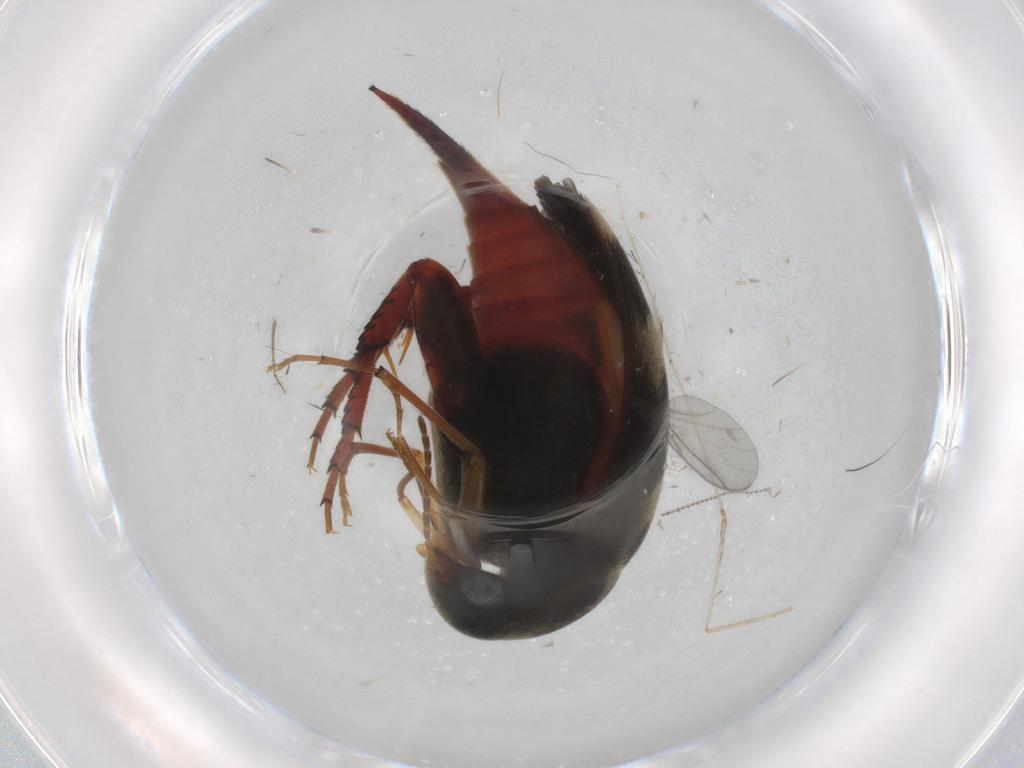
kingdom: Animalia
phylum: Arthropoda
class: Insecta
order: Coleoptera
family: Mordellidae
